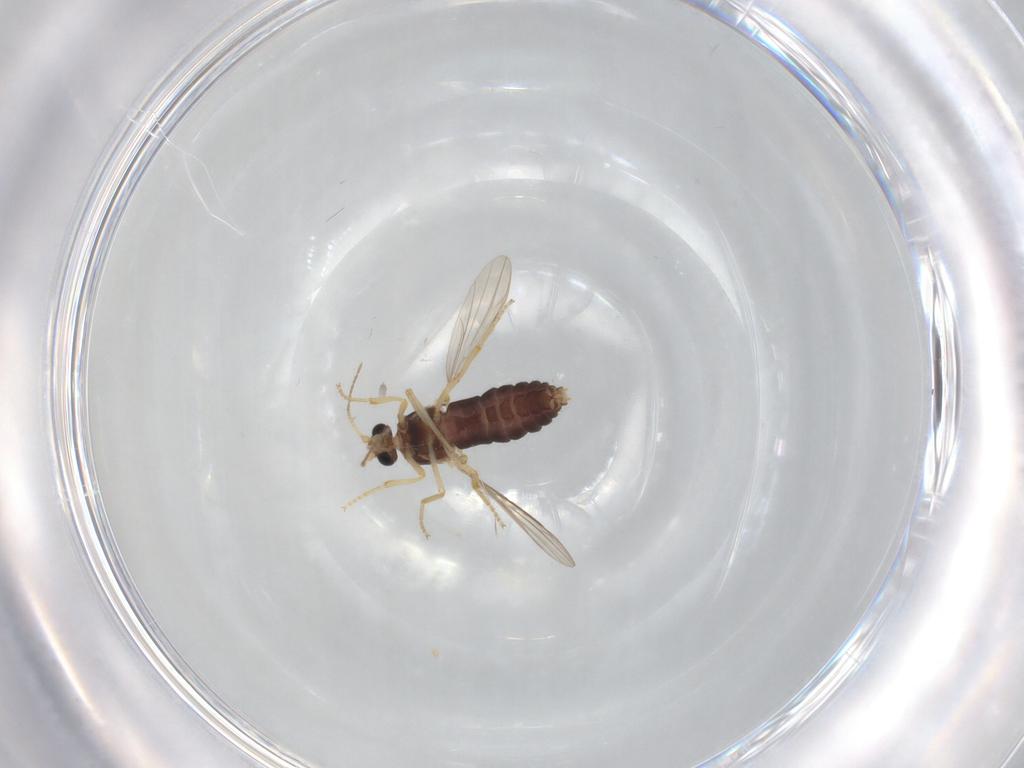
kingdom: Animalia
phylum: Arthropoda
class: Insecta
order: Diptera
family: Ceratopogonidae
